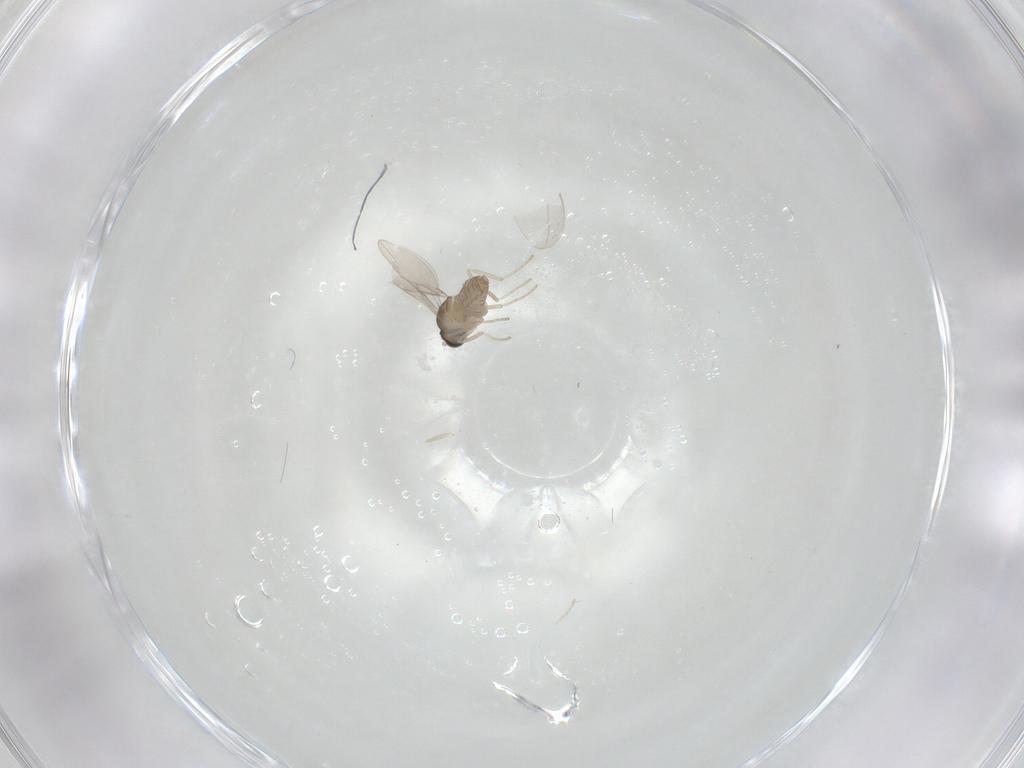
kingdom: Animalia
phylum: Arthropoda
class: Insecta
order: Diptera
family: Cecidomyiidae
